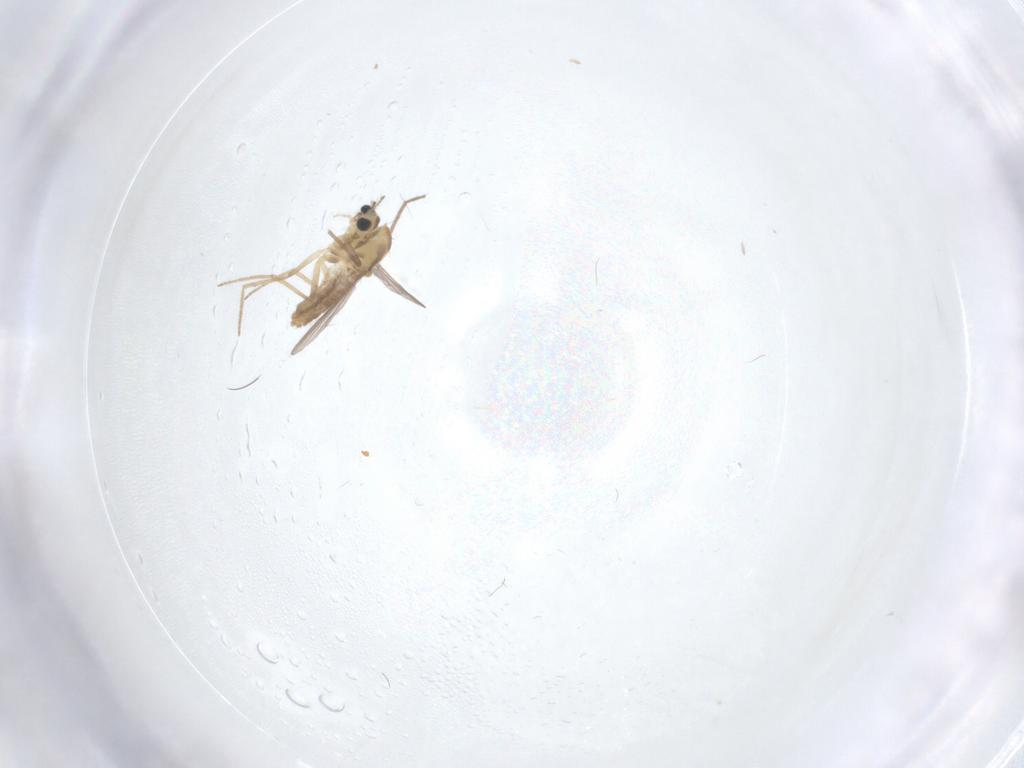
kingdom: Animalia
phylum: Arthropoda
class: Insecta
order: Diptera
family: Chironomidae
